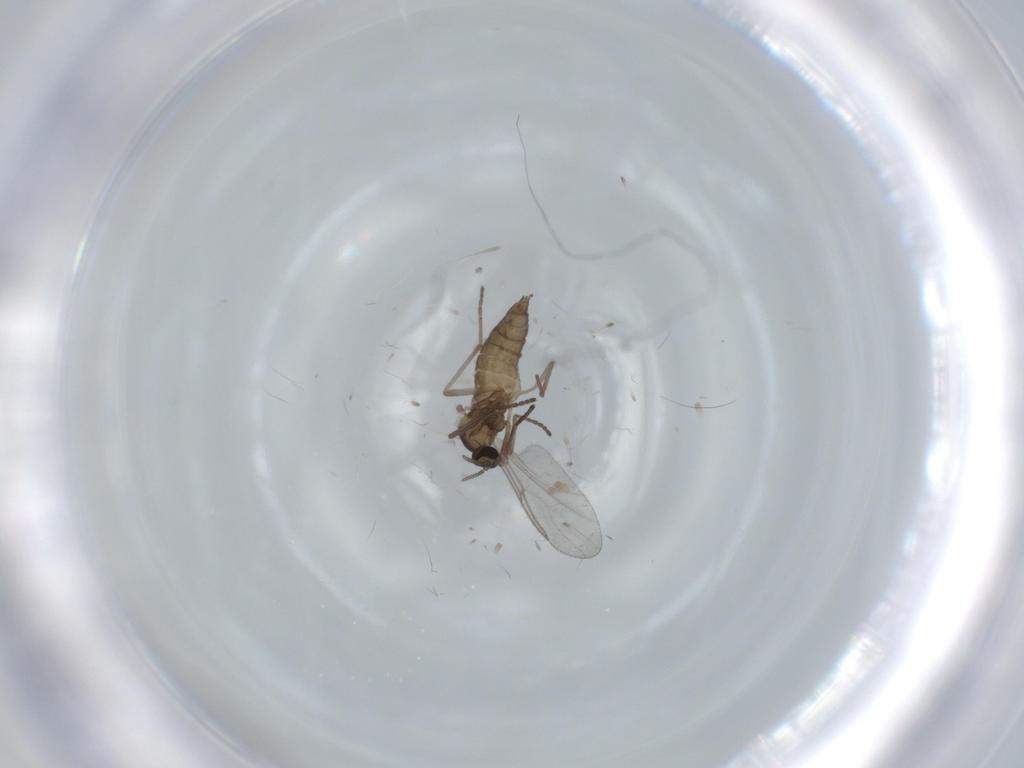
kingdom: Animalia
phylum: Arthropoda
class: Insecta
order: Diptera
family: Cecidomyiidae
